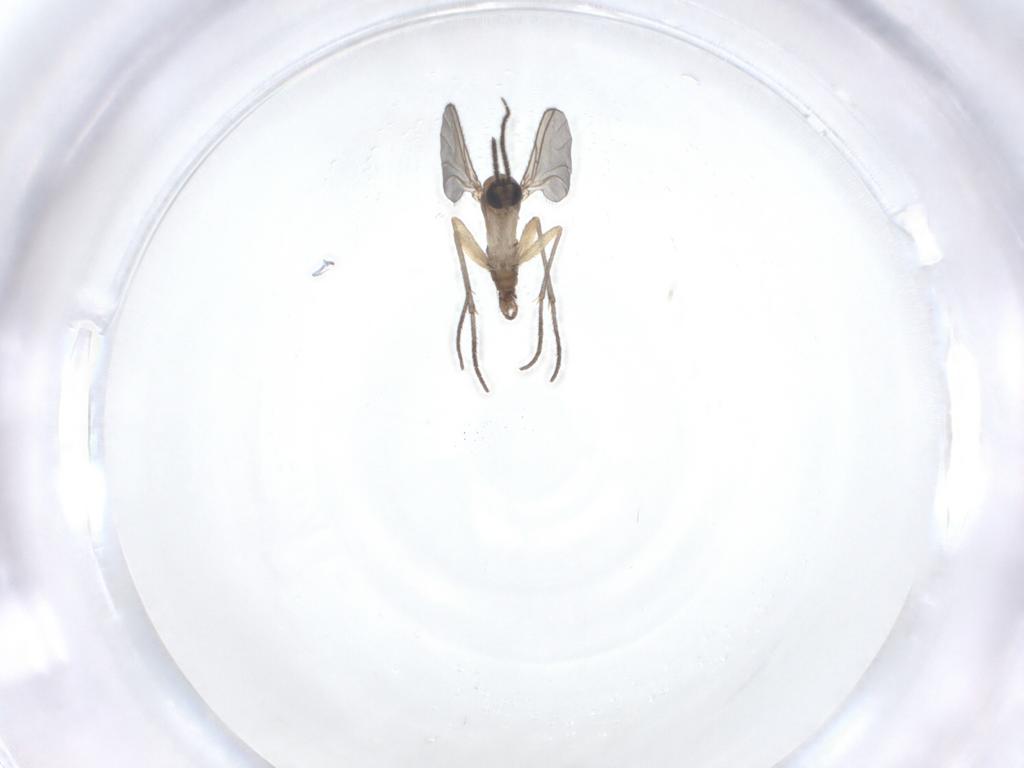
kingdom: Animalia
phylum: Arthropoda
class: Insecta
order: Diptera
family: Sciaridae
